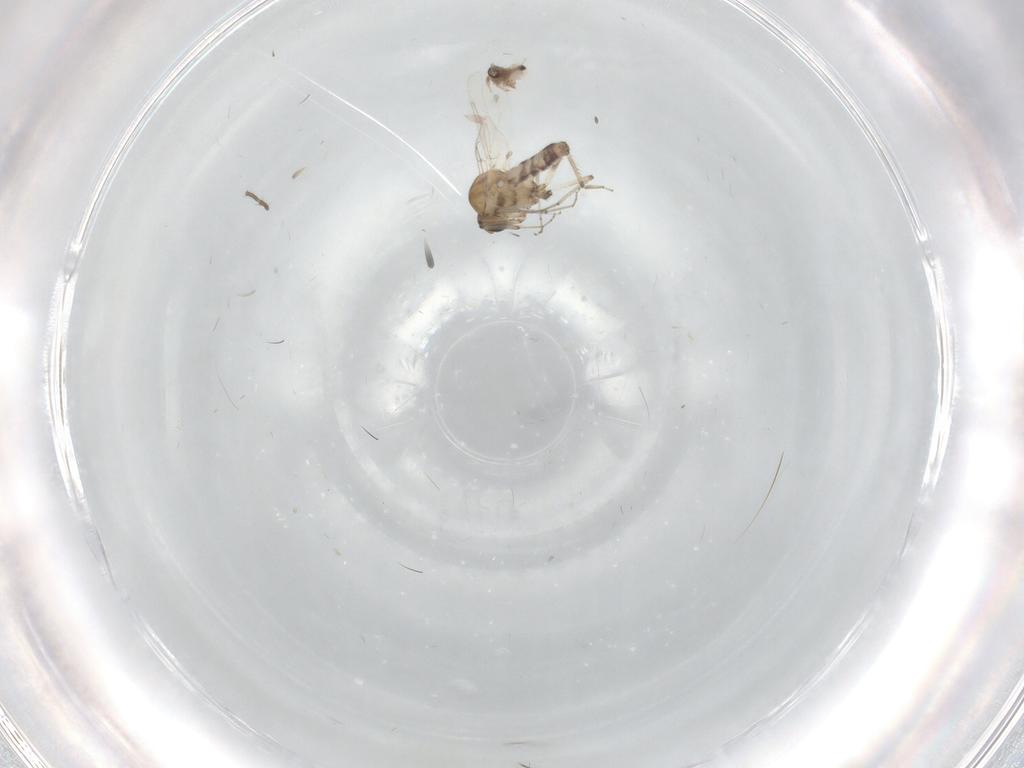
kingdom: Animalia
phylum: Arthropoda
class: Insecta
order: Diptera
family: Ceratopogonidae
